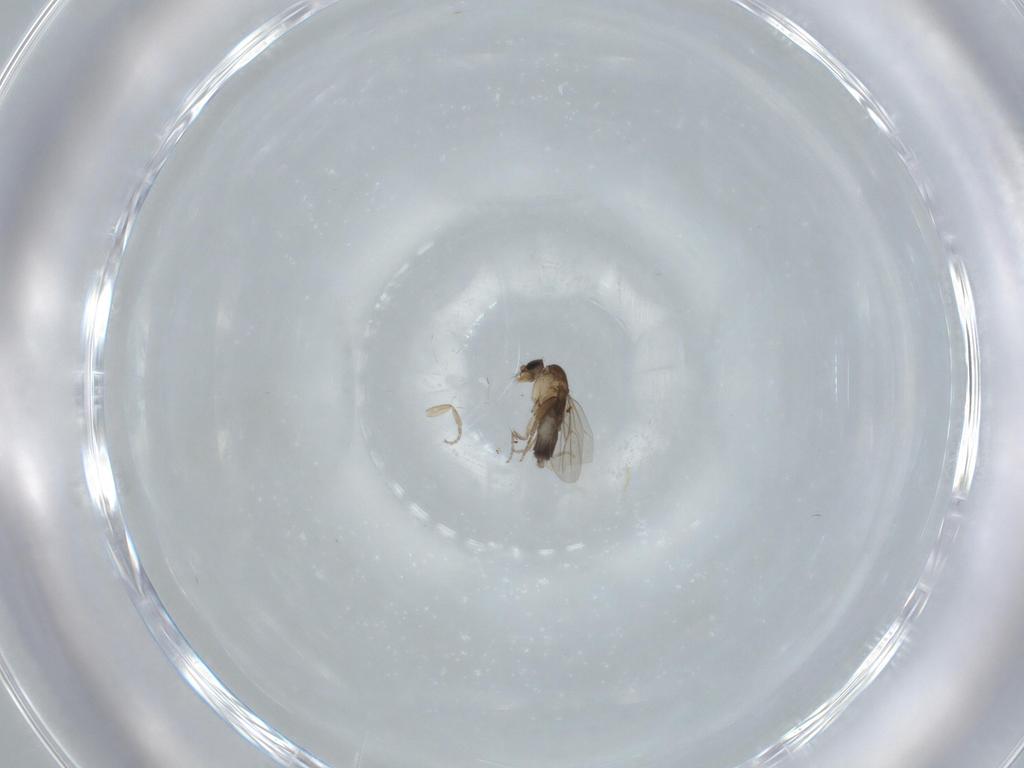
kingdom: Animalia
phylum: Arthropoda
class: Insecta
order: Diptera
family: Phoridae
